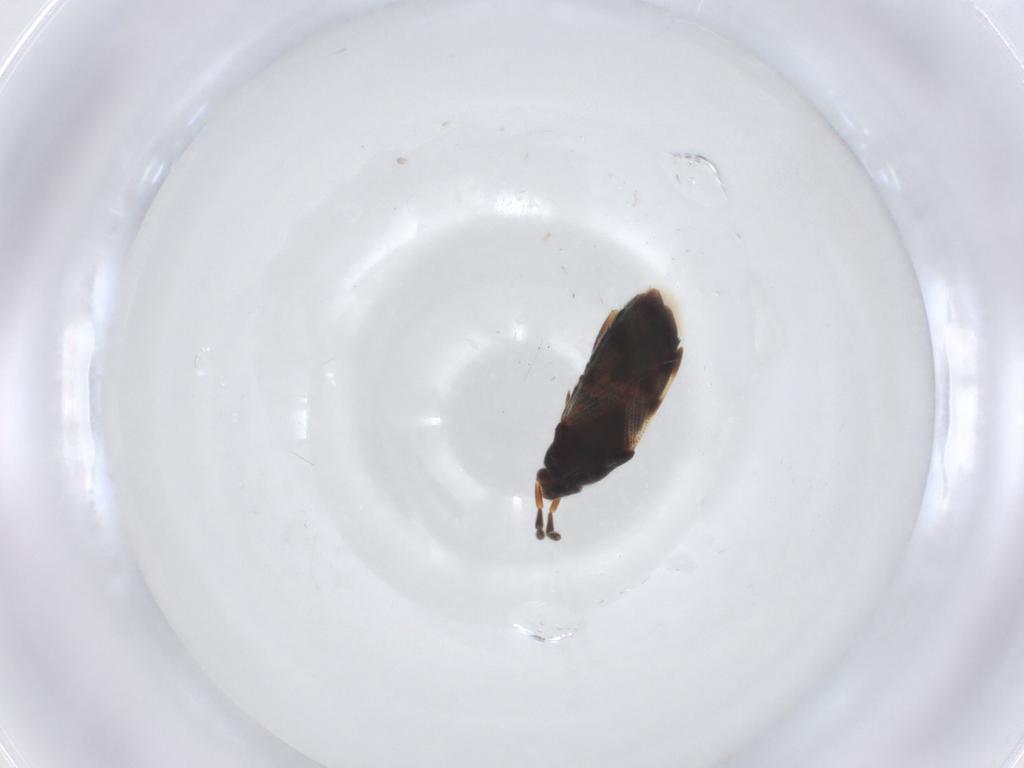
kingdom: Animalia
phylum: Arthropoda
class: Insecta
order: Hemiptera
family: Rhyparochromidae
